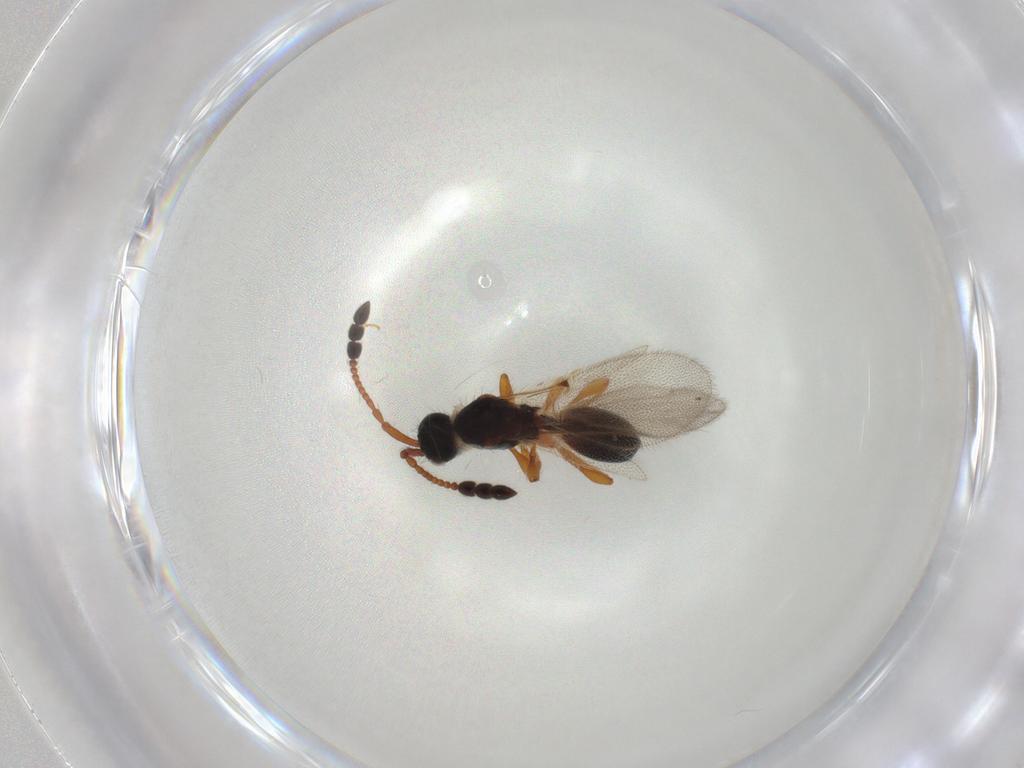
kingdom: Animalia
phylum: Arthropoda
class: Insecta
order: Hymenoptera
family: Diapriidae
